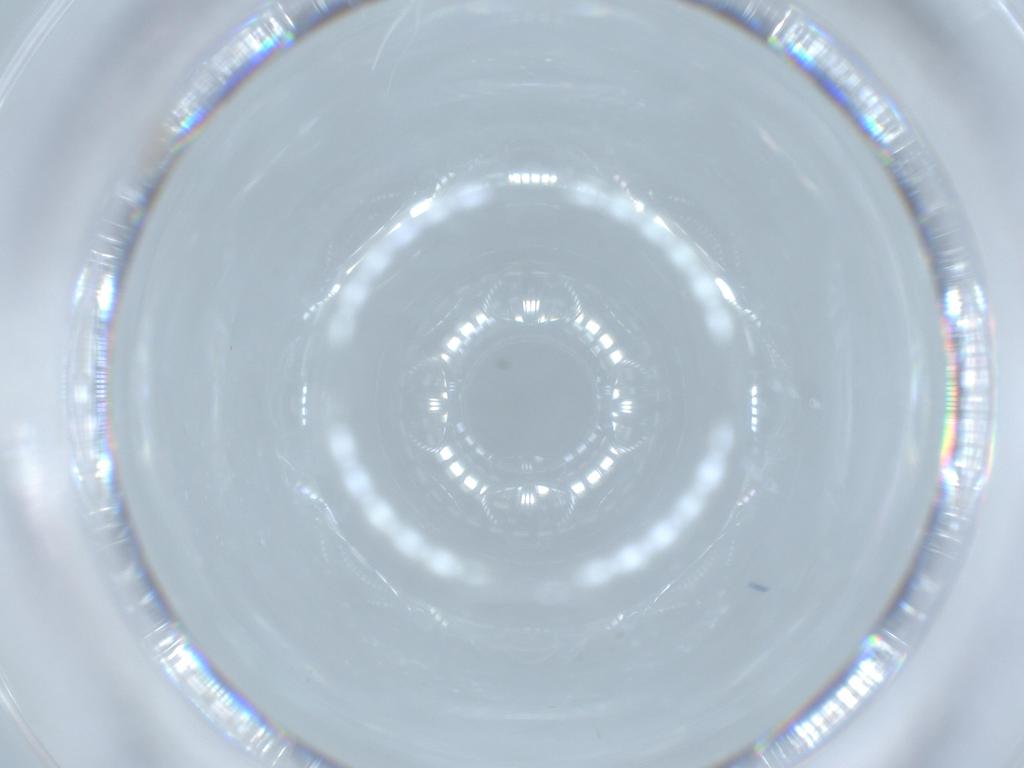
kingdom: Animalia
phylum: Arthropoda
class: Insecta
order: Diptera
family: Cecidomyiidae
